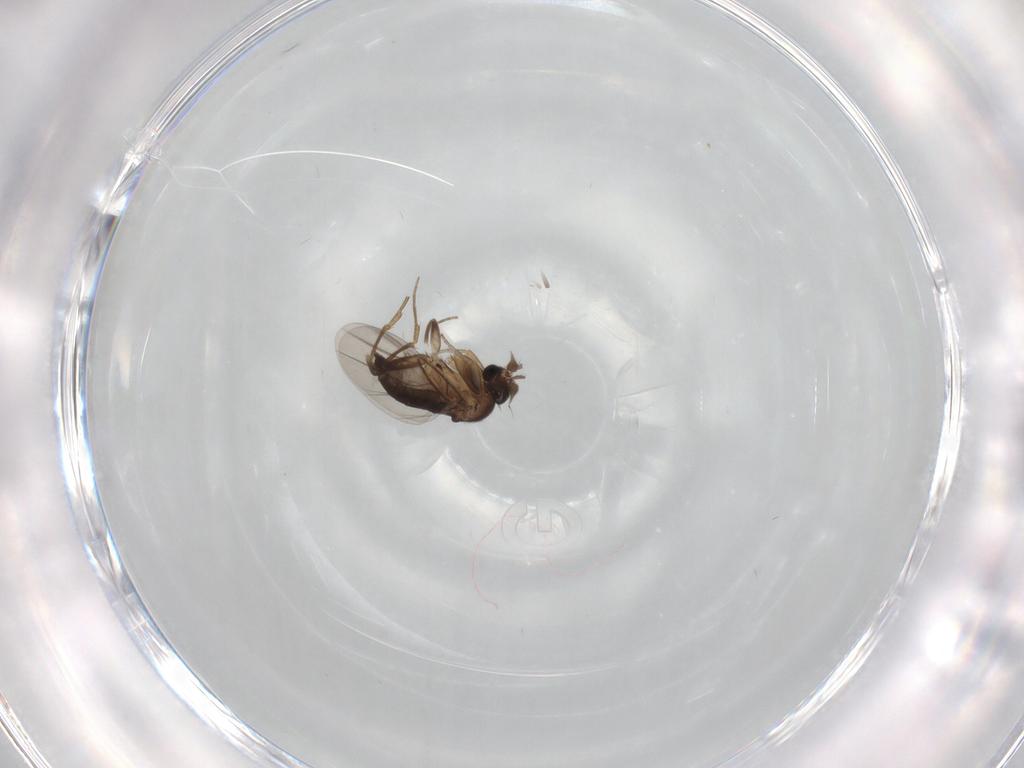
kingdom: Animalia
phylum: Arthropoda
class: Insecta
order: Diptera
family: Phoridae
